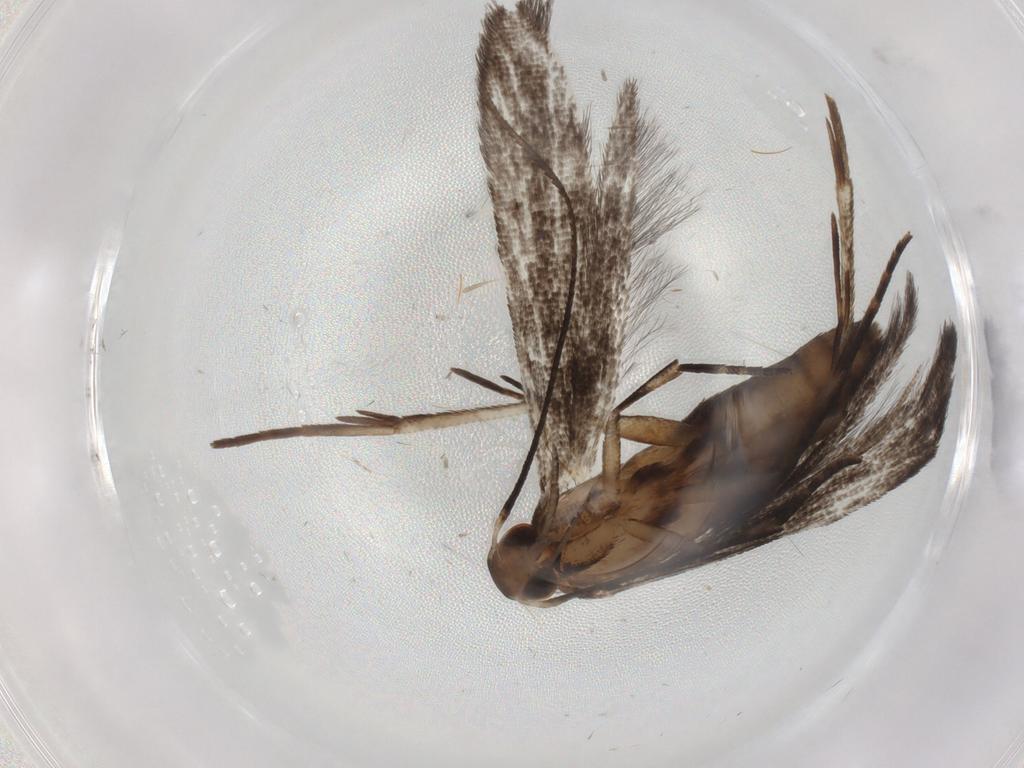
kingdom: Animalia
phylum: Arthropoda
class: Insecta
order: Lepidoptera
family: Gelechiidae
